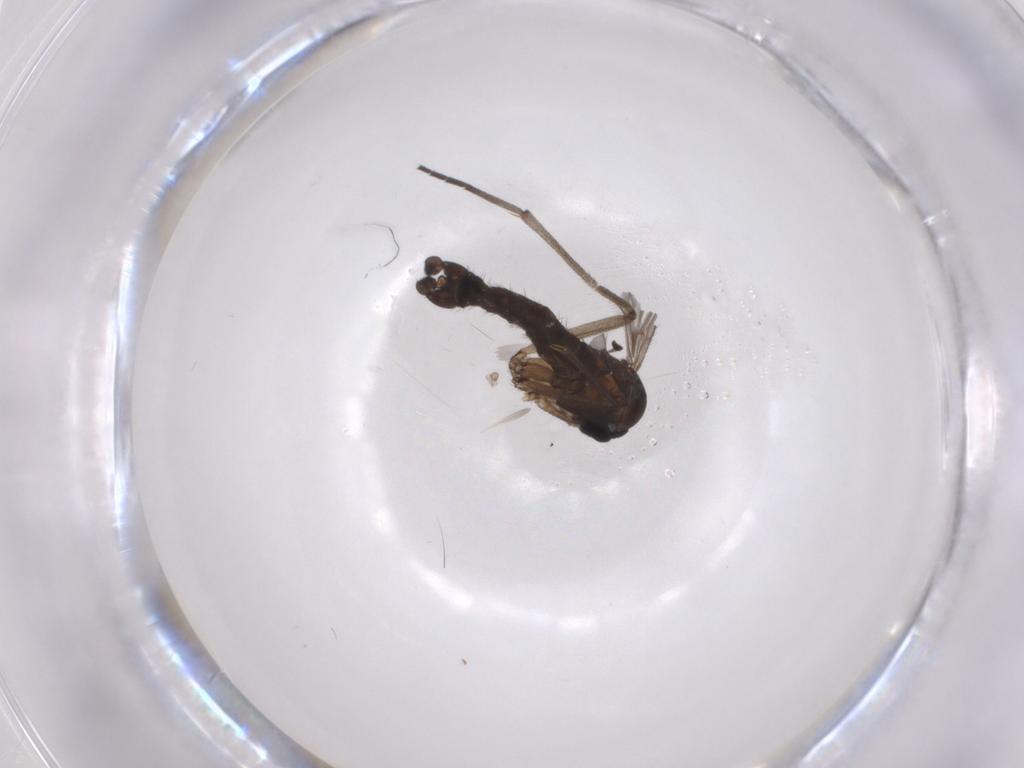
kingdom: Animalia
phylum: Arthropoda
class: Insecta
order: Diptera
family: Sciaridae
